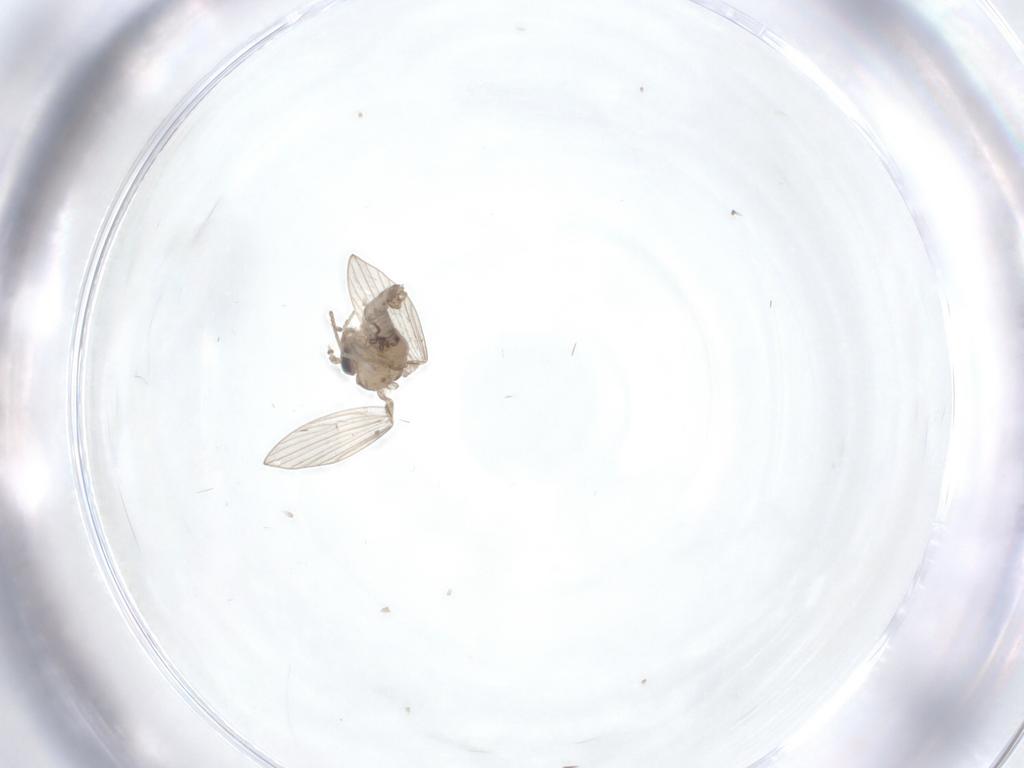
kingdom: Animalia
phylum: Arthropoda
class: Insecta
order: Diptera
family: Psychodidae
